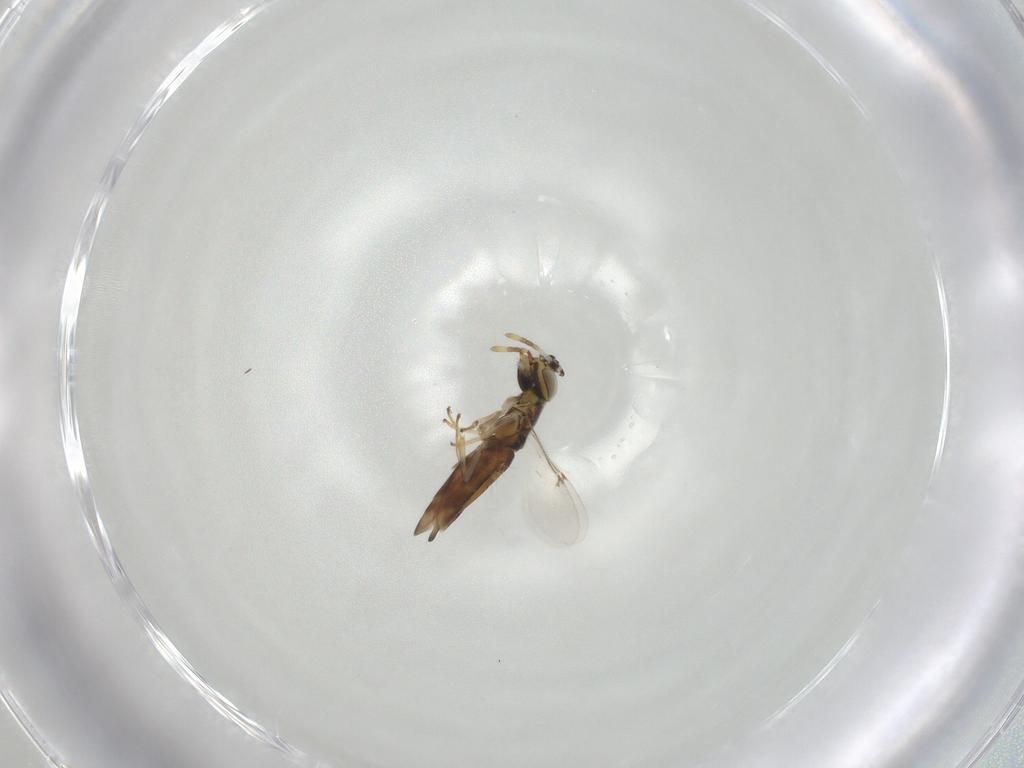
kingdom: Animalia
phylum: Arthropoda
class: Insecta
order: Hymenoptera
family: Encyrtidae
